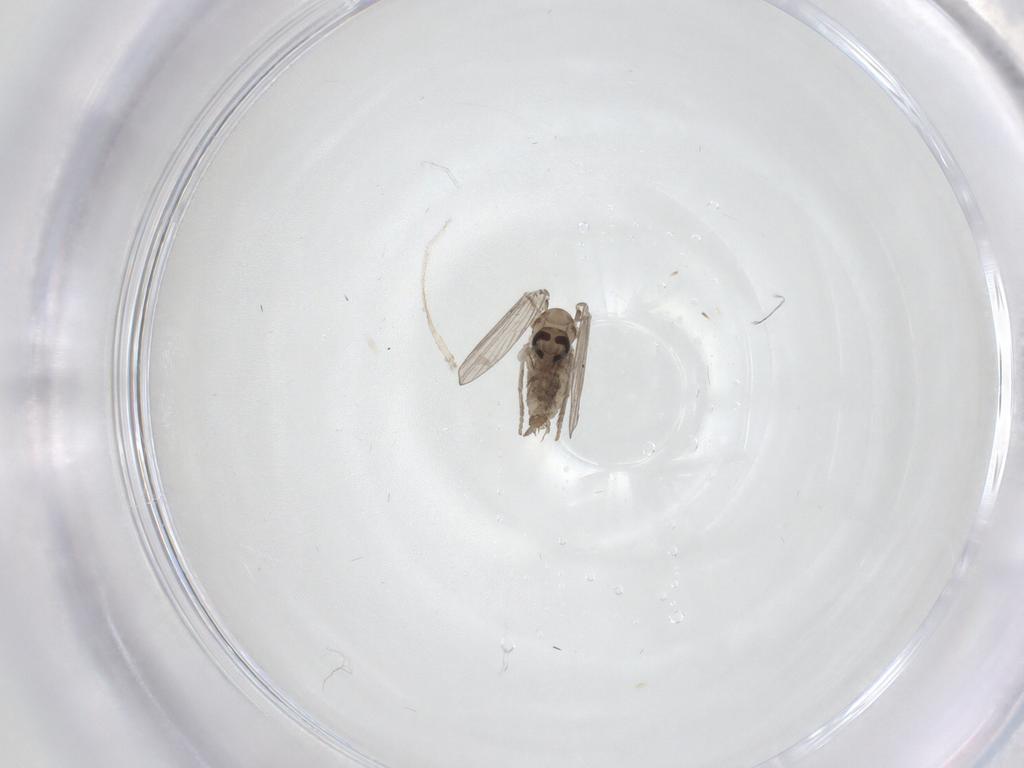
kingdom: Animalia
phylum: Arthropoda
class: Insecta
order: Diptera
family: Psychodidae
